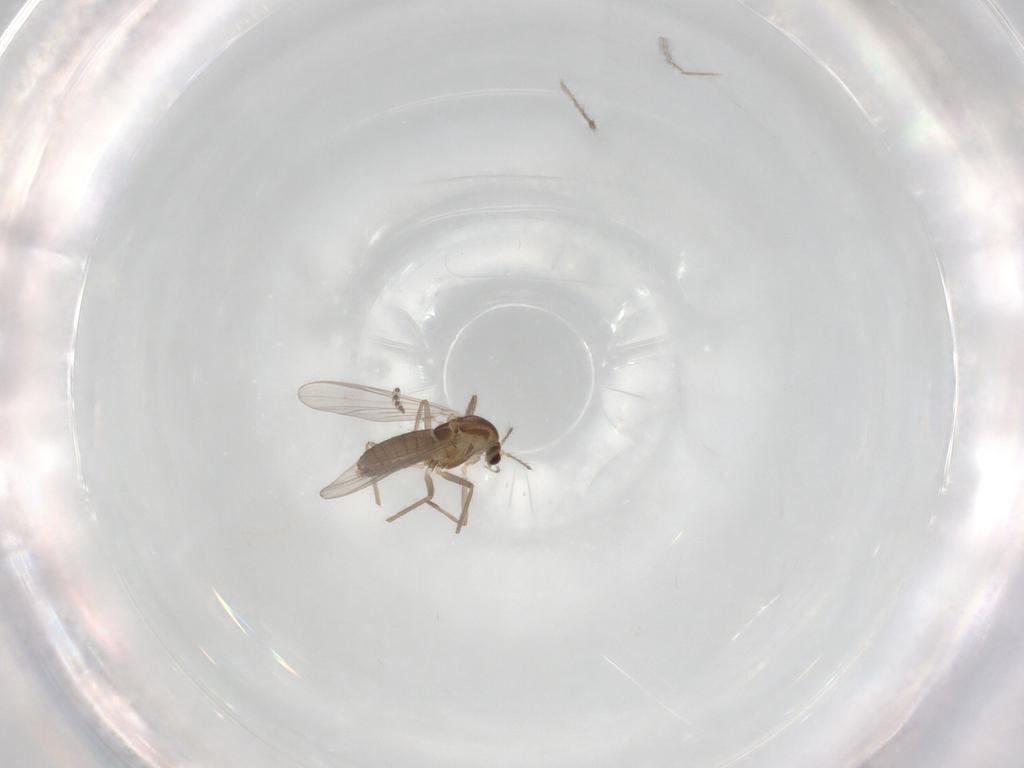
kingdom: Animalia
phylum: Arthropoda
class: Insecta
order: Diptera
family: Chironomidae
